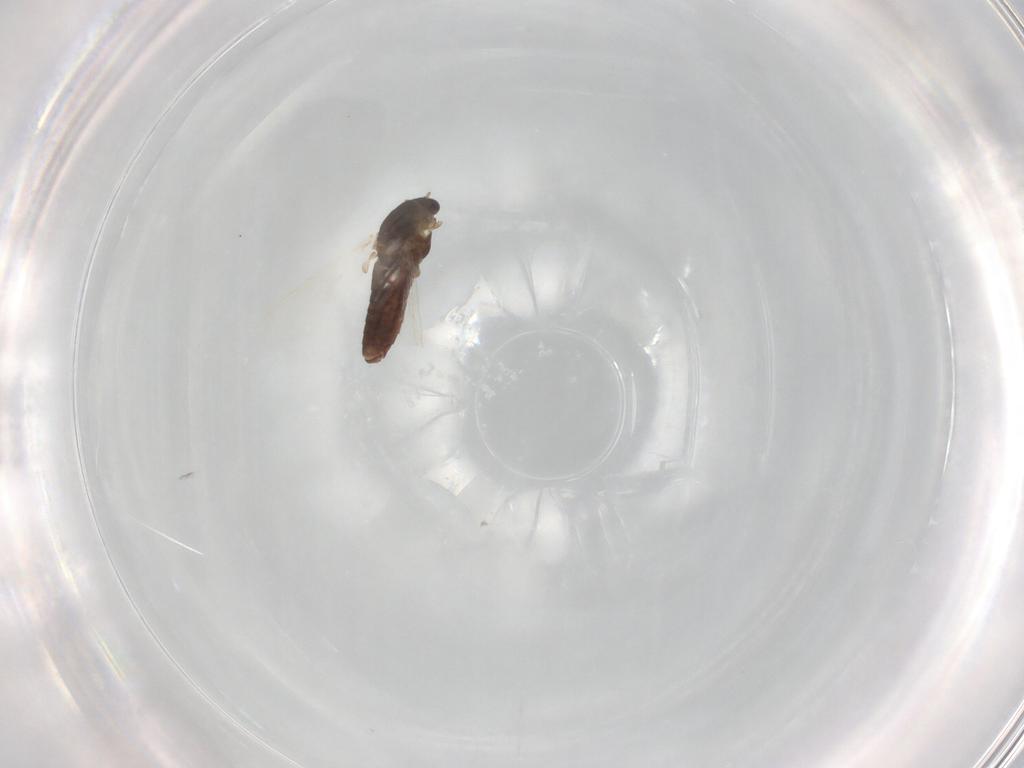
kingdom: Animalia
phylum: Arthropoda
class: Insecta
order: Diptera
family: Chironomidae
